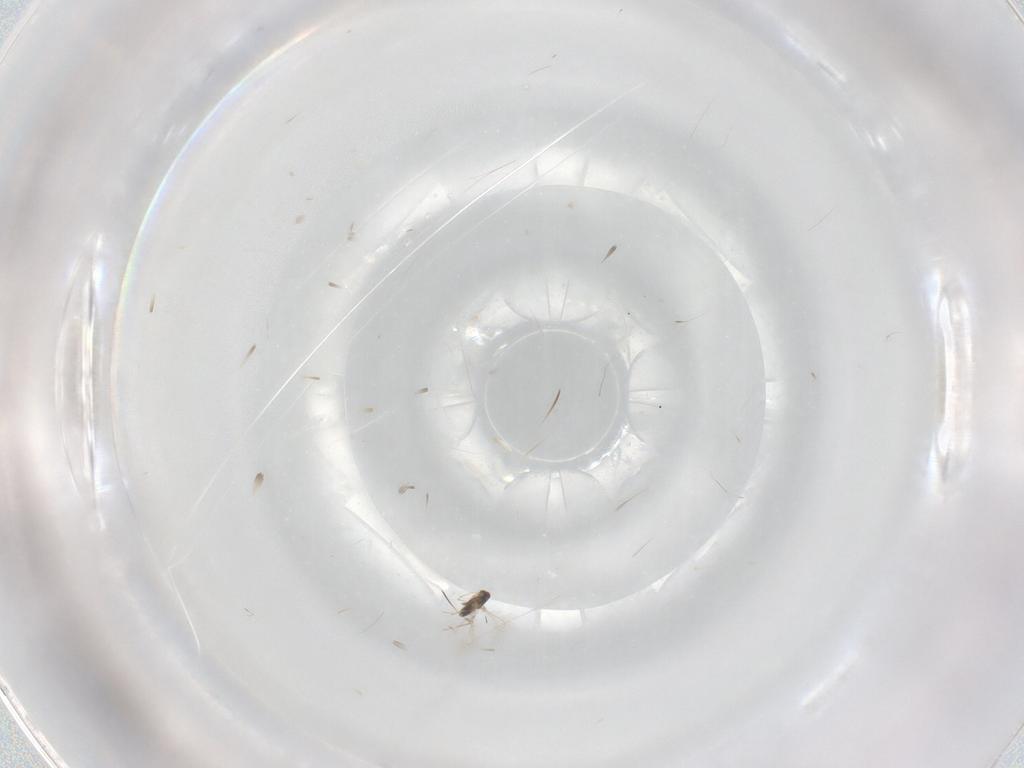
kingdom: Animalia
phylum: Arthropoda
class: Insecta
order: Hymenoptera
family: Mymaridae
